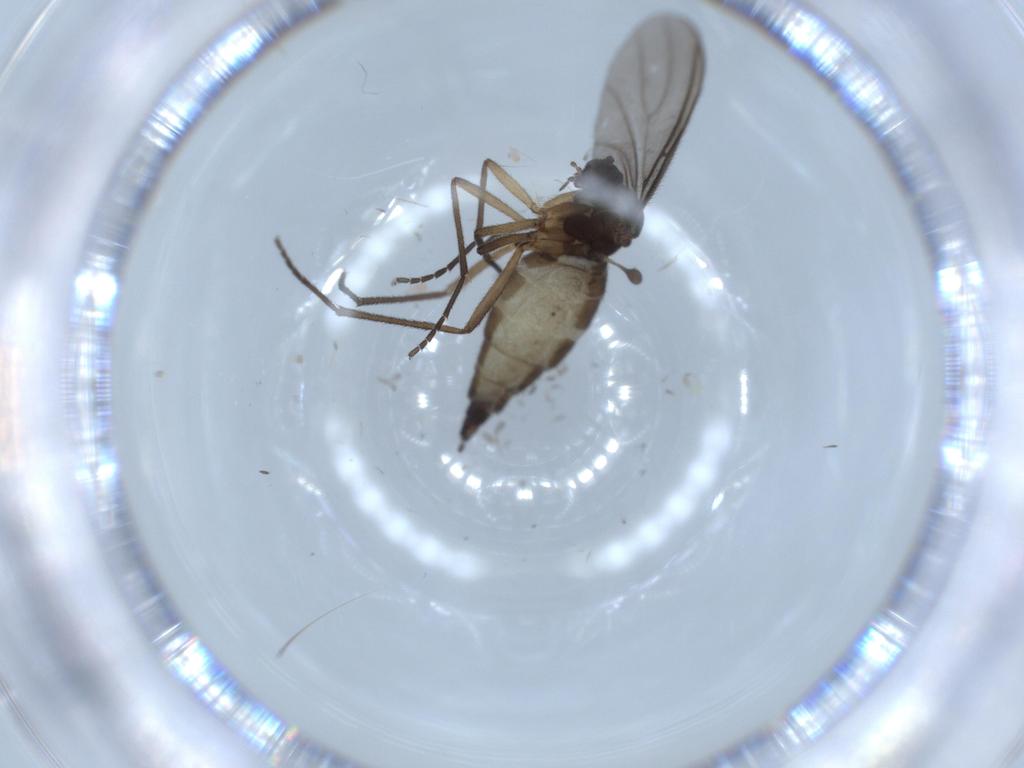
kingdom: Animalia
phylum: Arthropoda
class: Insecta
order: Diptera
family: Sciaridae
